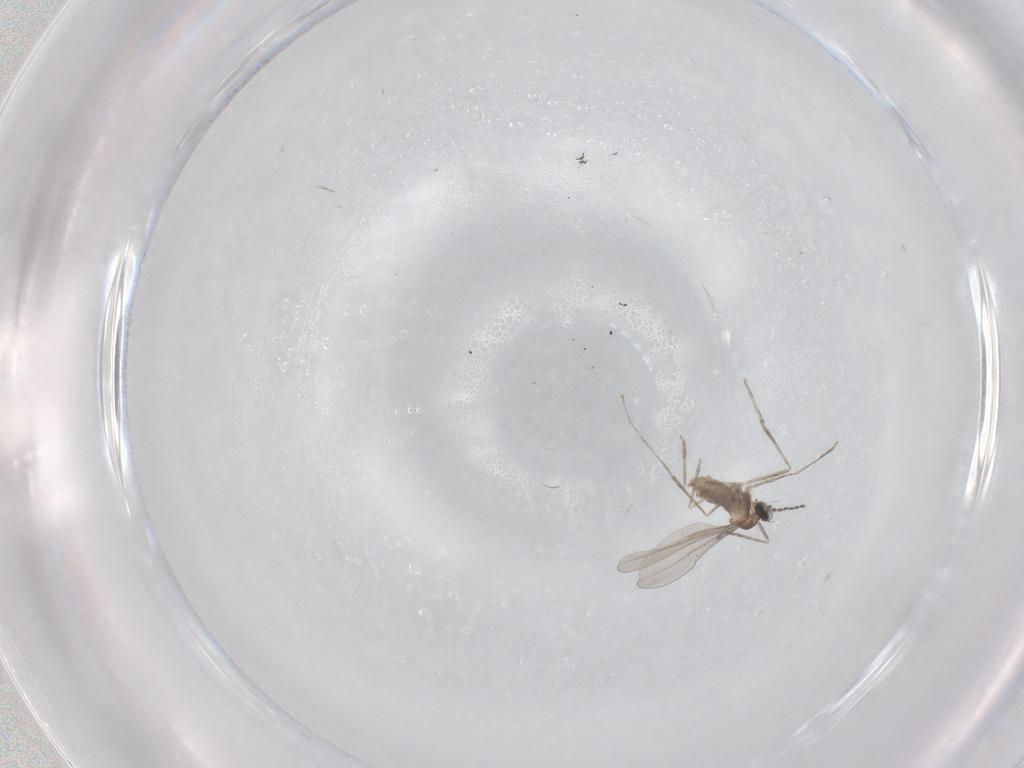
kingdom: Animalia
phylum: Arthropoda
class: Insecta
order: Diptera
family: Cecidomyiidae
